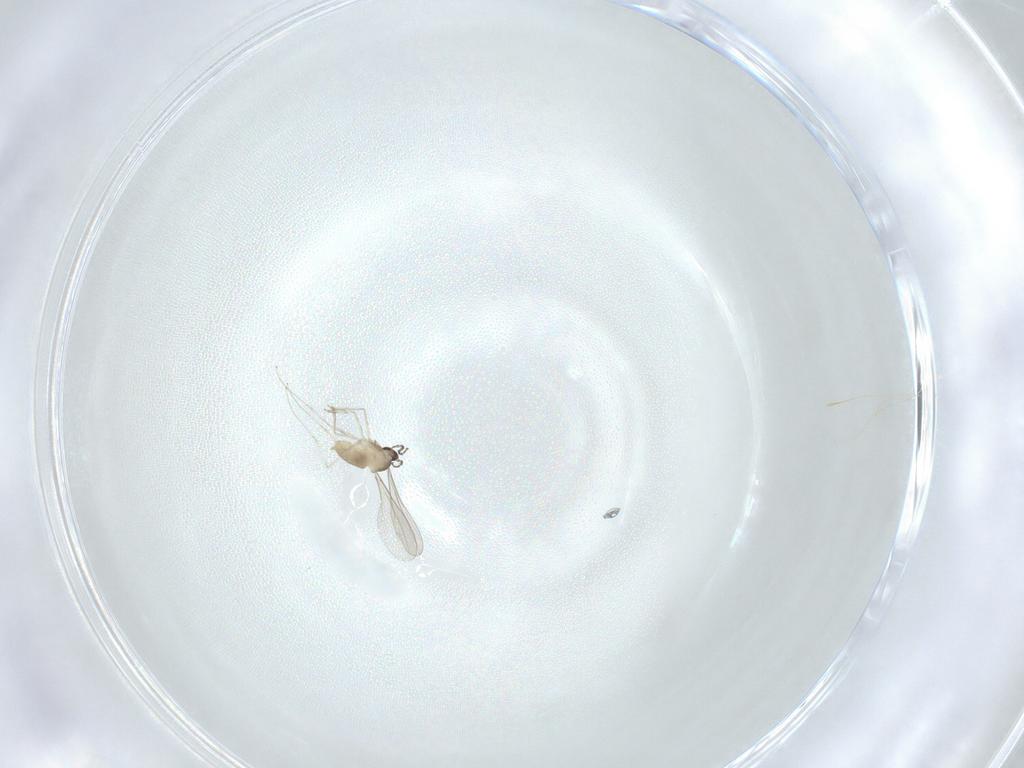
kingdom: Animalia
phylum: Arthropoda
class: Insecta
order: Diptera
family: Cecidomyiidae
